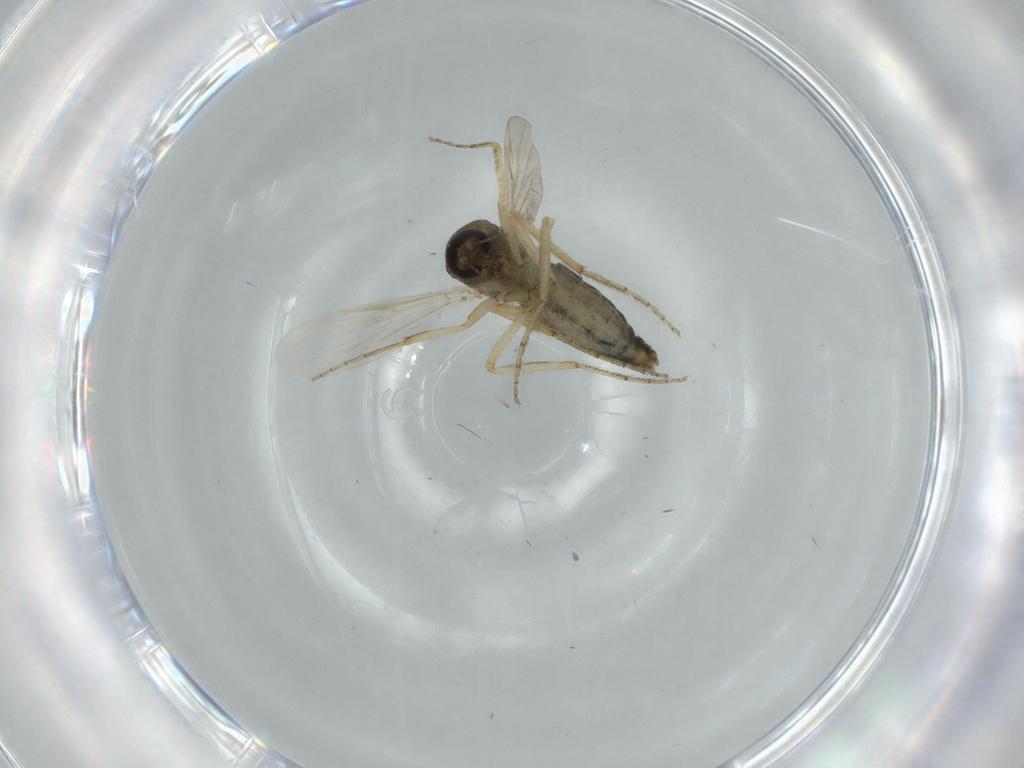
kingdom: Animalia
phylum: Arthropoda
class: Insecta
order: Diptera
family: Ceratopogonidae
